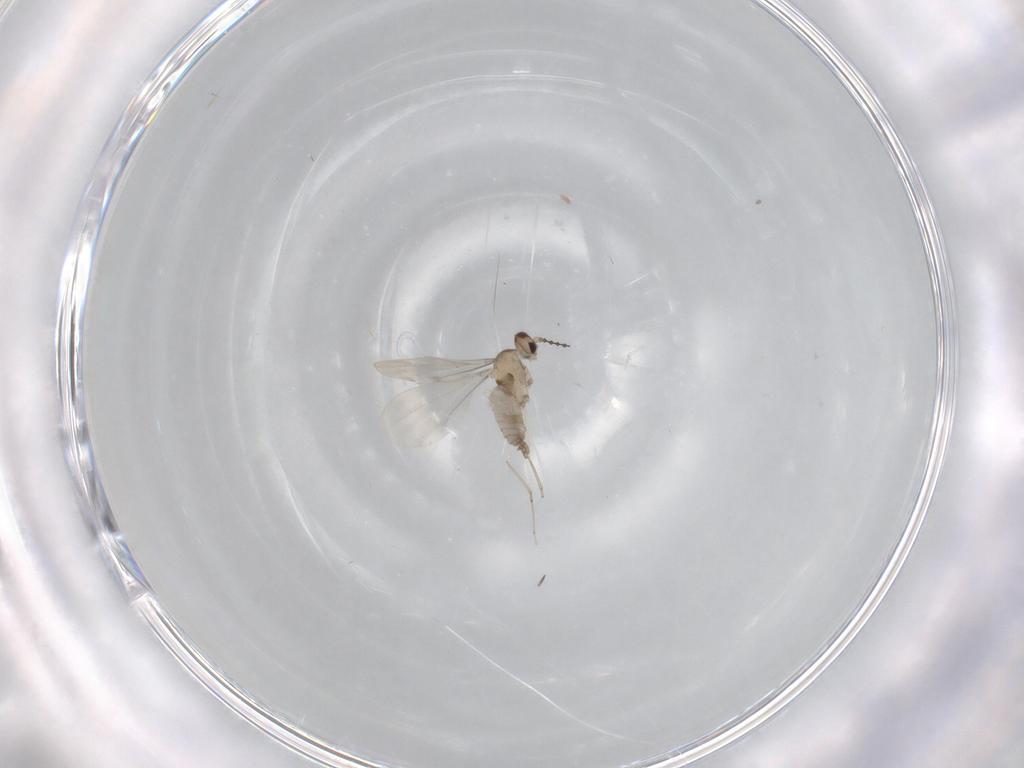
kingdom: Animalia
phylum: Arthropoda
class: Insecta
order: Diptera
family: Cecidomyiidae
